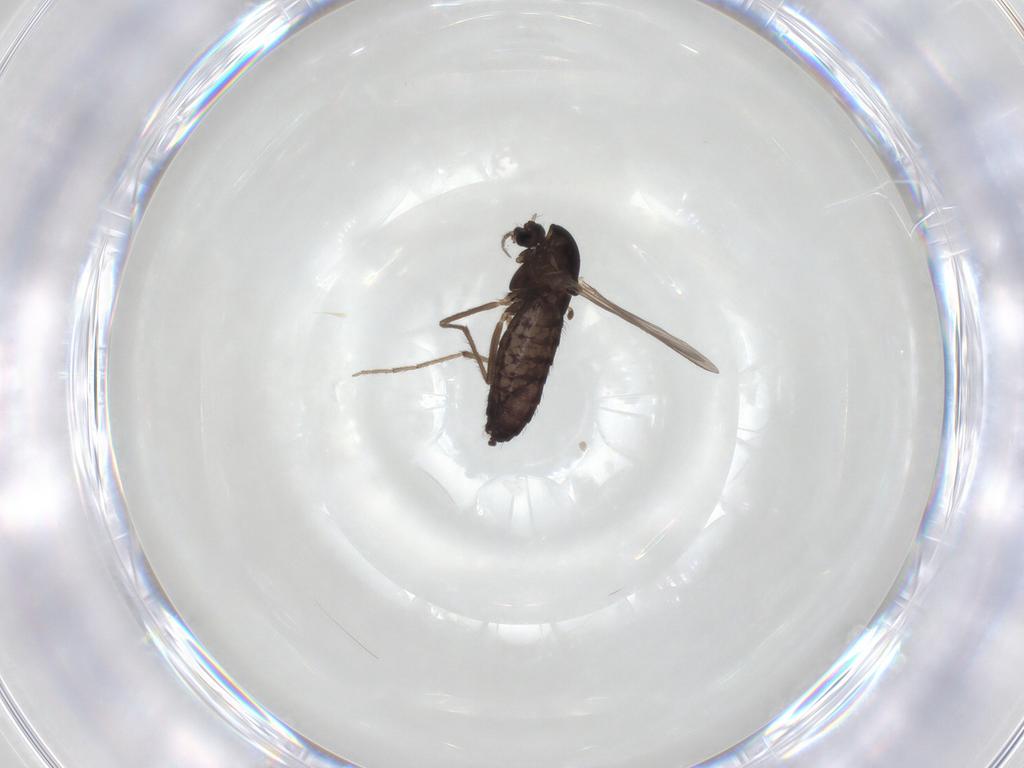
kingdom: Animalia
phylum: Arthropoda
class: Insecta
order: Diptera
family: Chironomidae
